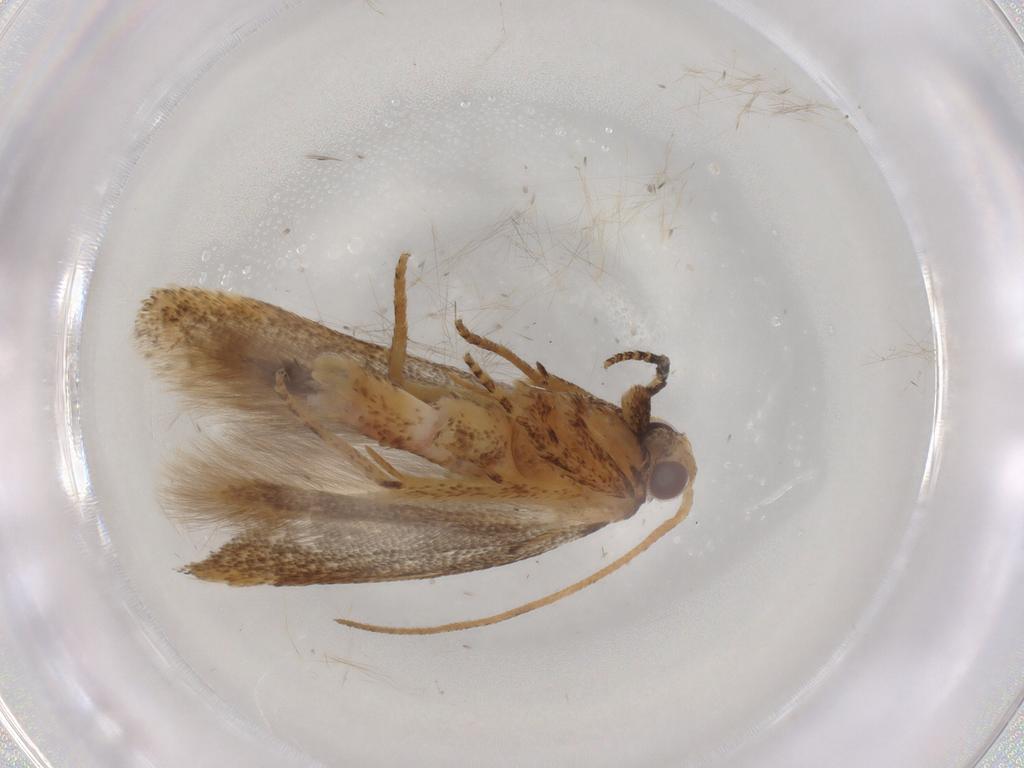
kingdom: Animalia
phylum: Arthropoda
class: Insecta
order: Lepidoptera
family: Gelechiidae
